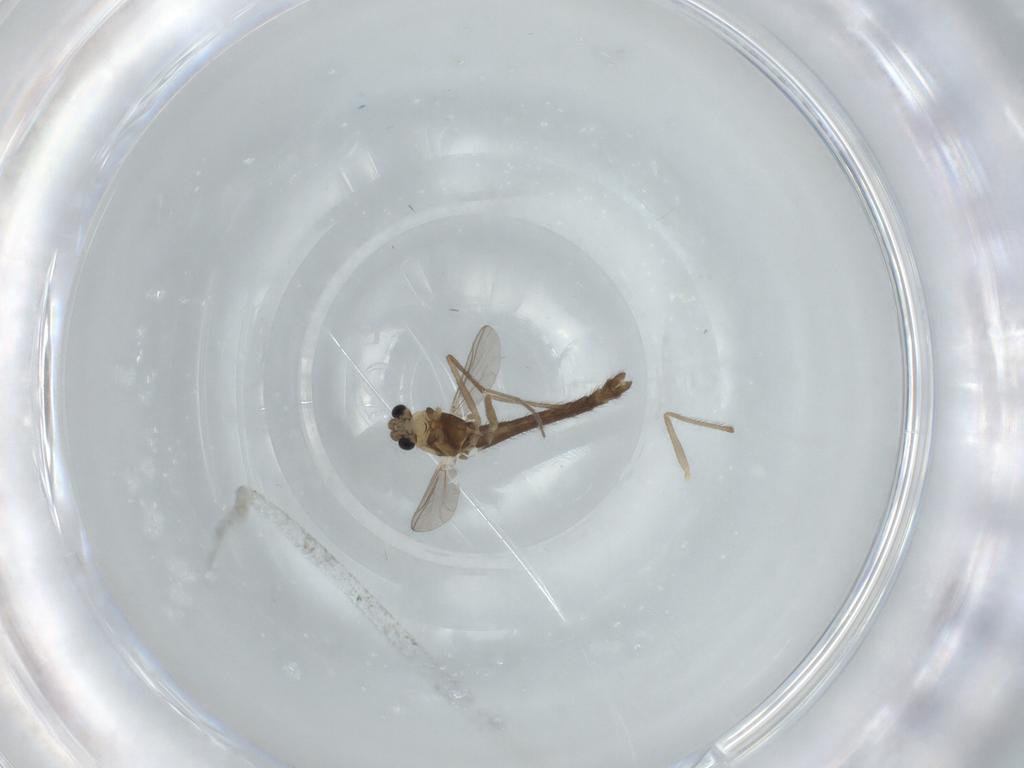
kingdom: Animalia
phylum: Arthropoda
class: Insecta
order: Diptera
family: Chironomidae
